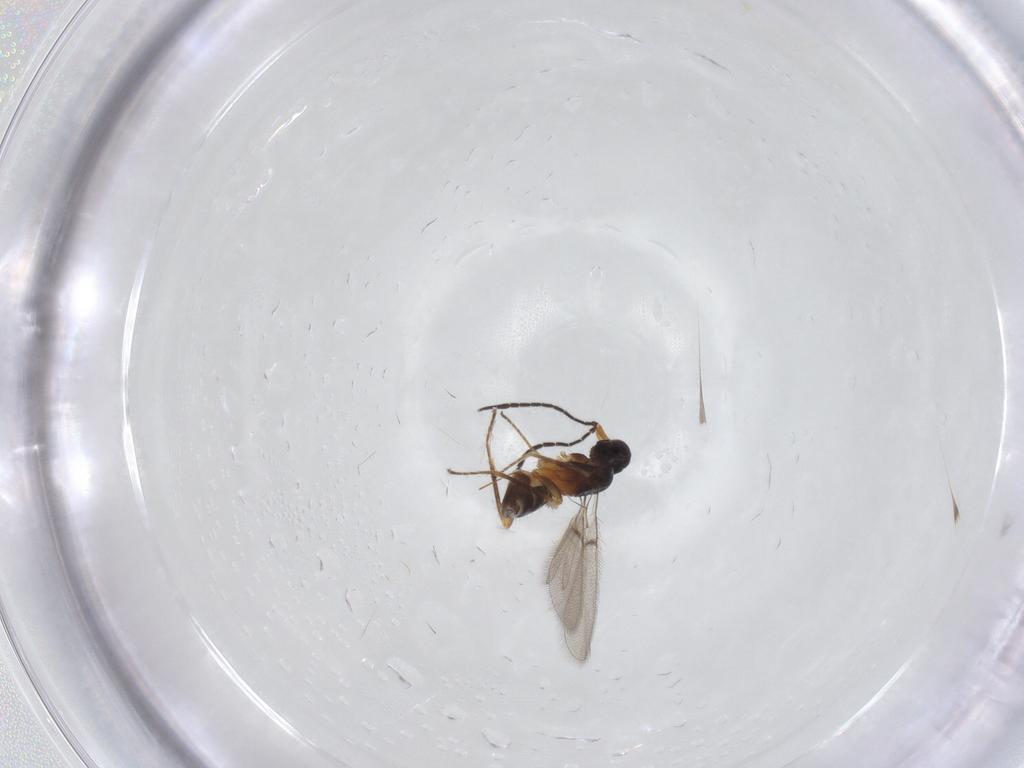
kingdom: Animalia
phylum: Arthropoda
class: Insecta
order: Hymenoptera
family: Mymaridae
